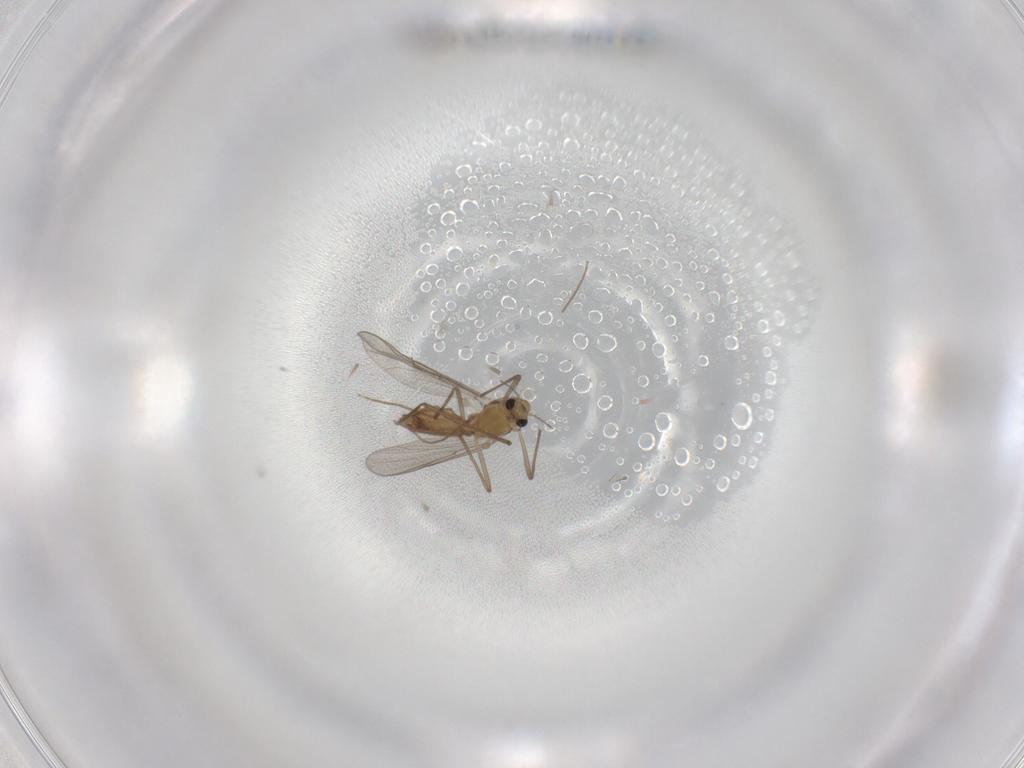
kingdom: Animalia
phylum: Arthropoda
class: Insecta
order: Diptera
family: Chironomidae
